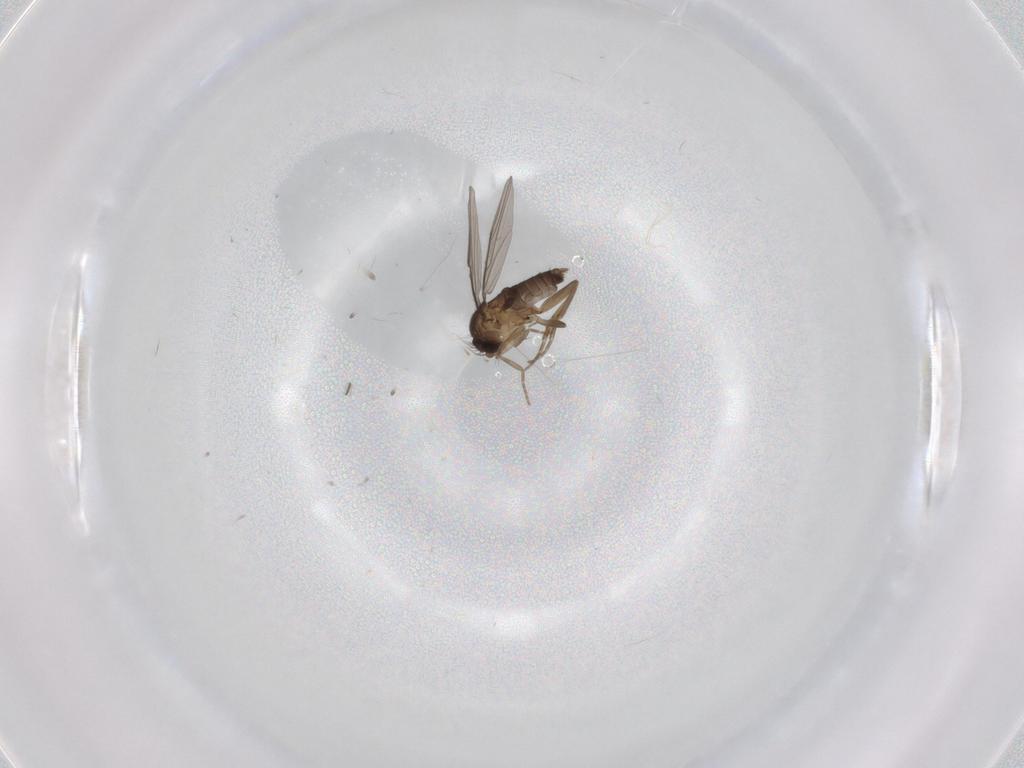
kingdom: Animalia
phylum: Arthropoda
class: Insecta
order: Diptera
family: Phoridae
